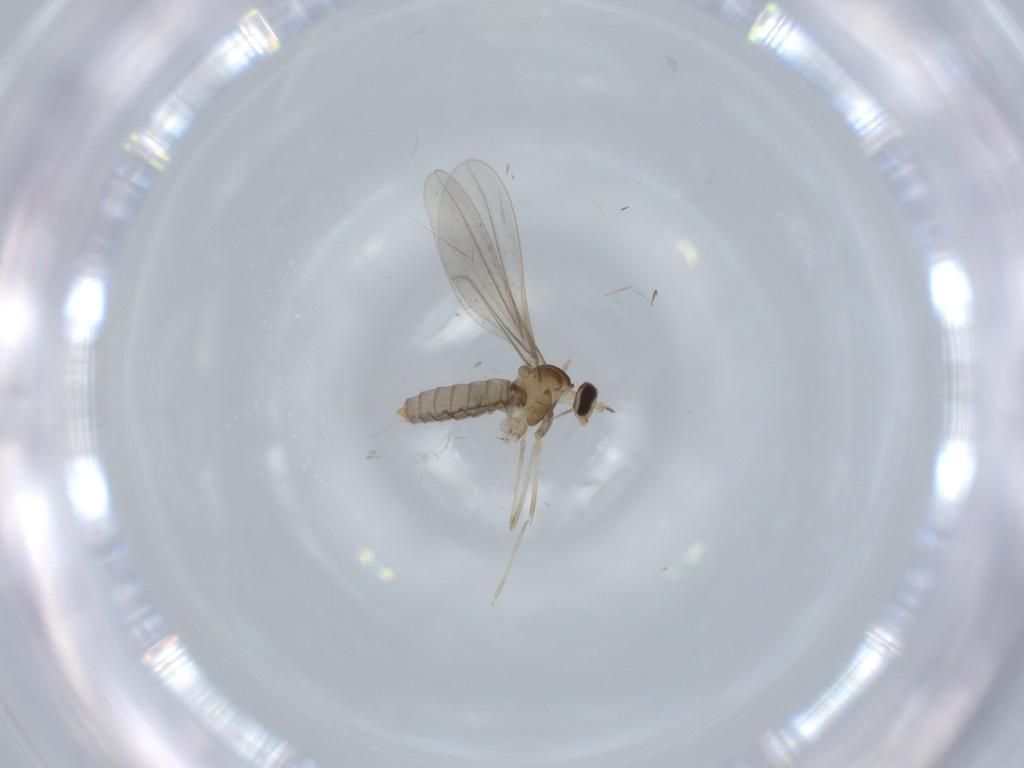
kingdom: Animalia
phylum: Arthropoda
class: Insecta
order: Diptera
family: Cecidomyiidae
